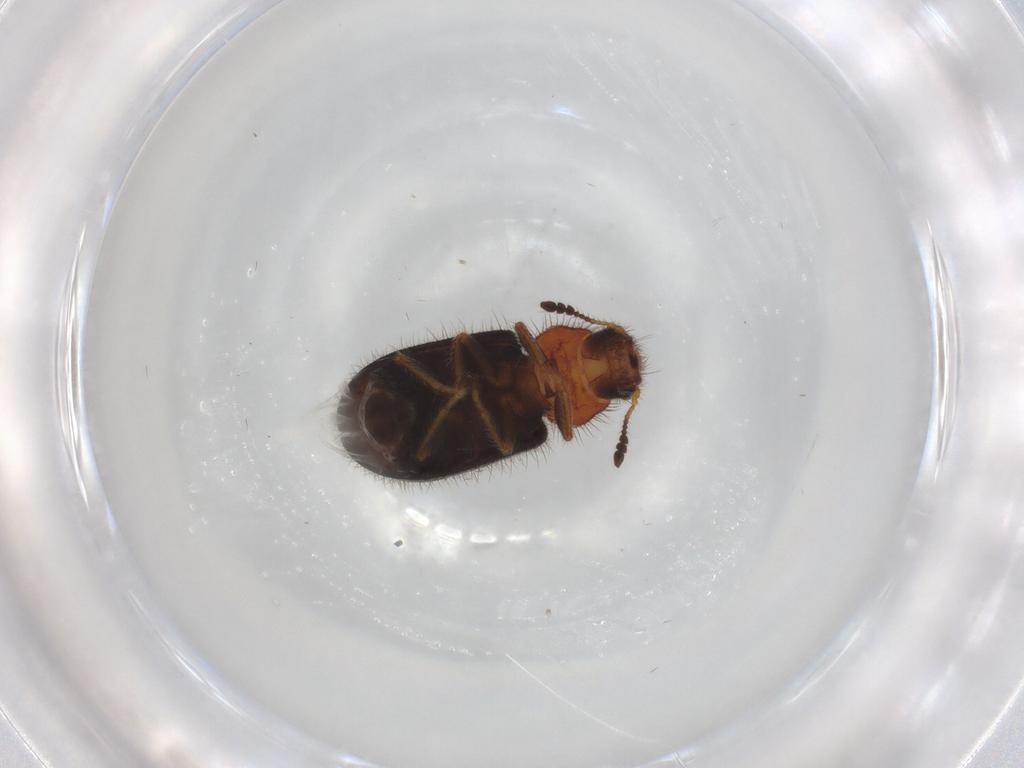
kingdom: Animalia
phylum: Arthropoda
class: Insecta
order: Coleoptera
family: Cleridae
